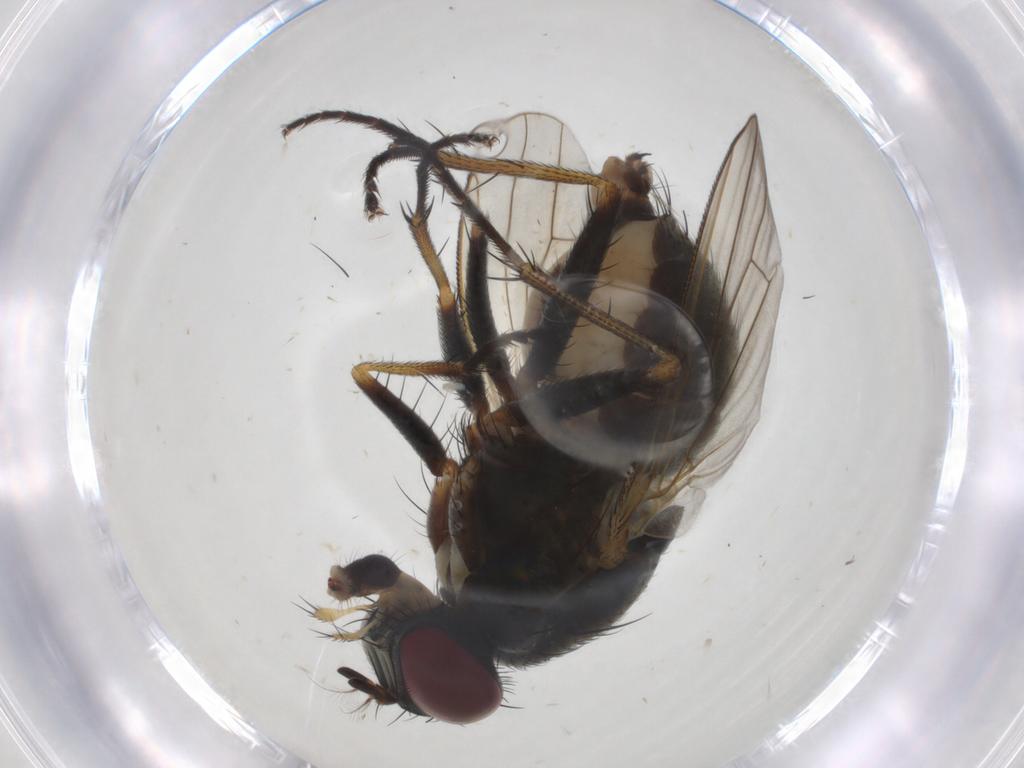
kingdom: Animalia
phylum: Arthropoda
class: Insecta
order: Diptera
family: Muscidae
